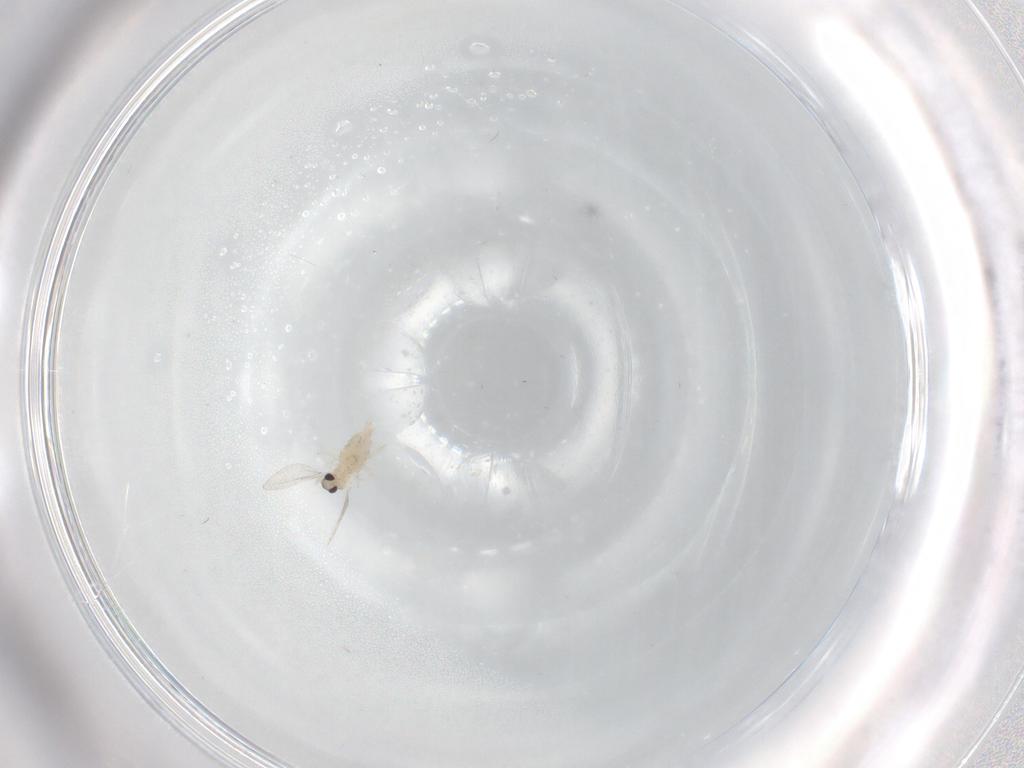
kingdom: Animalia
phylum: Arthropoda
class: Insecta
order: Diptera
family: Cecidomyiidae
